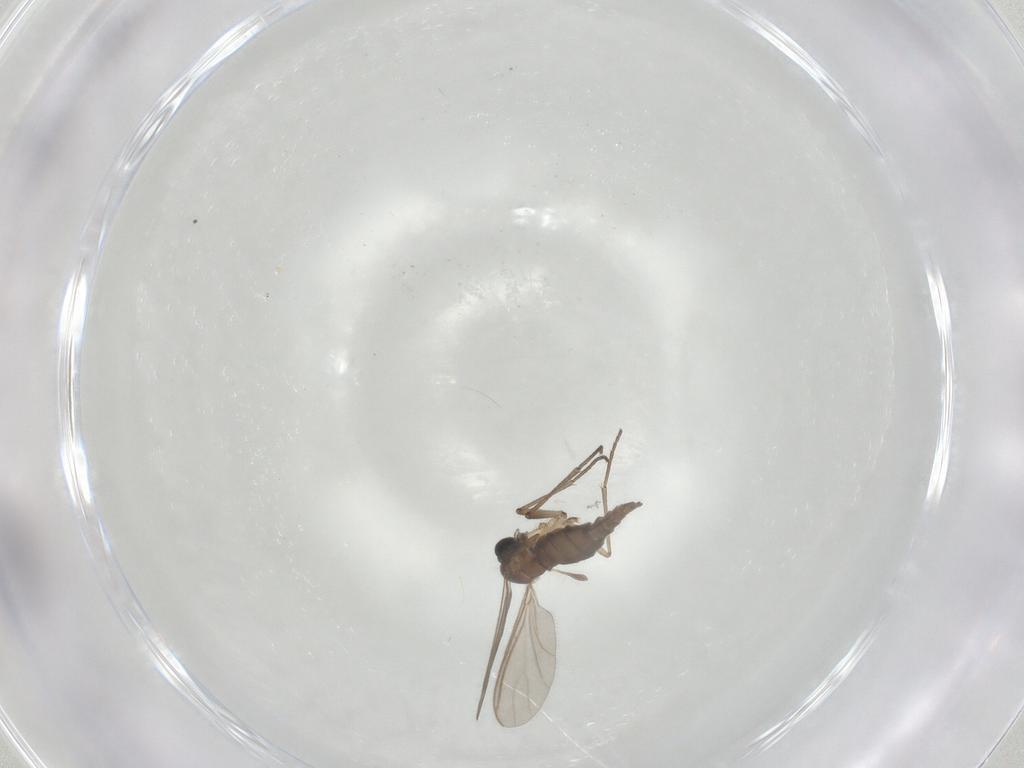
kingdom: Animalia
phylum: Arthropoda
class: Insecta
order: Diptera
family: Sciaridae
